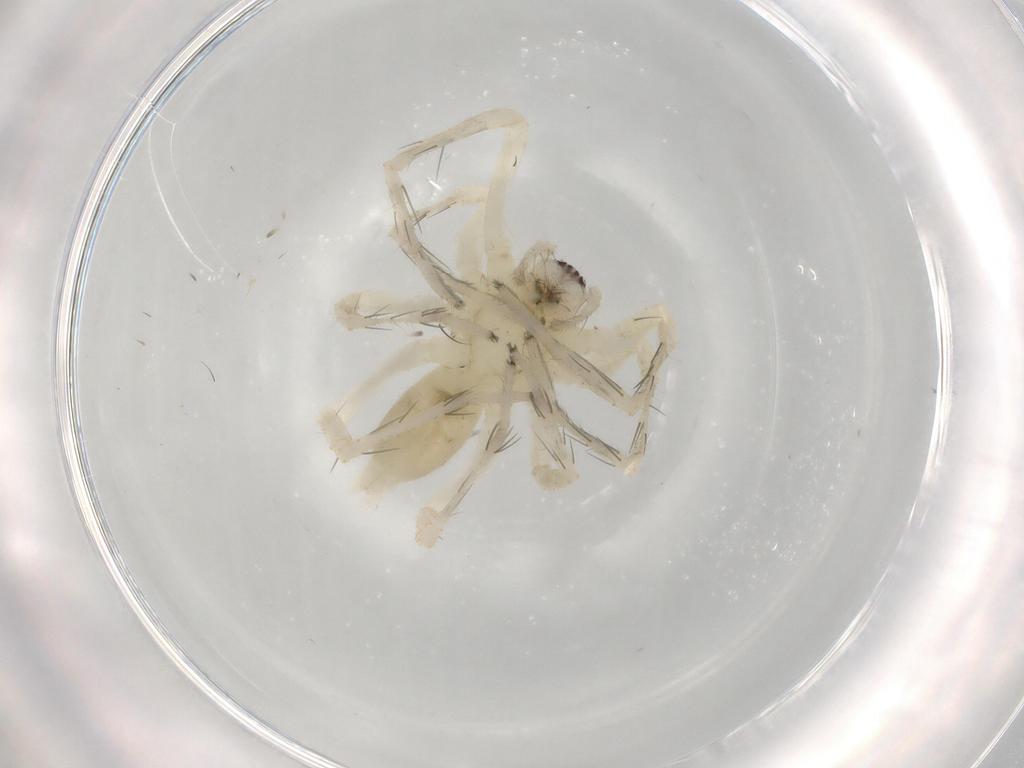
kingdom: Animalia
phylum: Arthropoda
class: Arachnida
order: Araneae
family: Anyphaenidae
